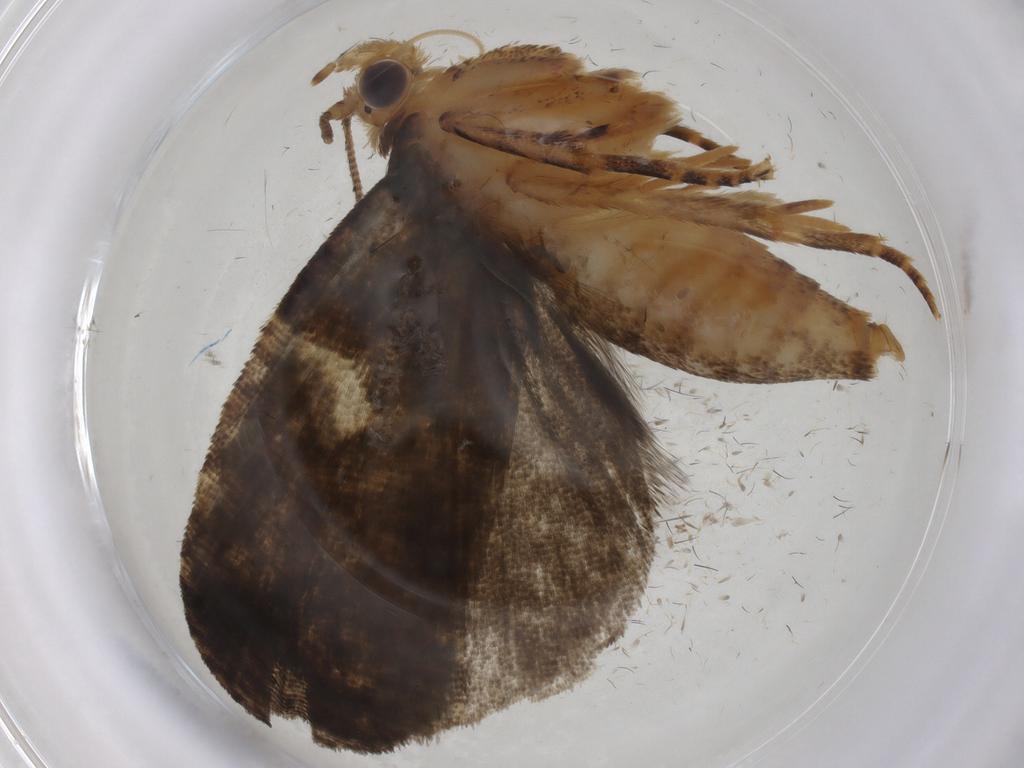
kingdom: Animalia
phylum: Arthropoda
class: Insecta
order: Lepidoptera
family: Tortricidae
